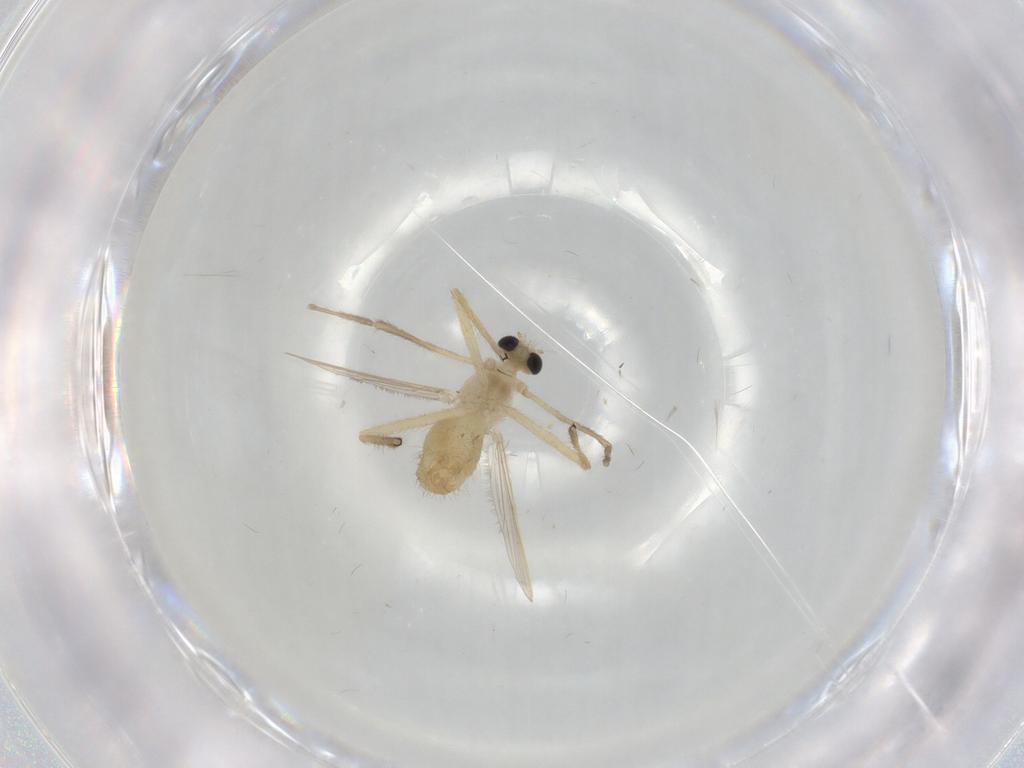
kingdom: Animalia
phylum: Arthropoda
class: Insecta
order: Diptera
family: Chironomidae
